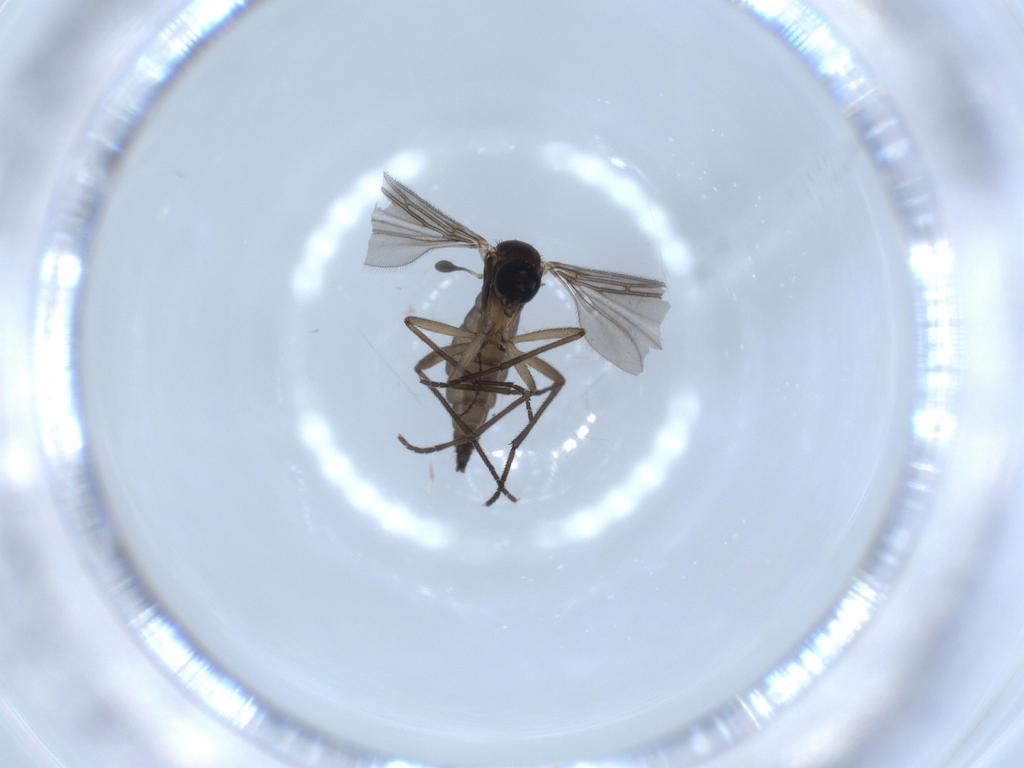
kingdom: Animalia
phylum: Arthropoda
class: Insecta
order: Diptera
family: Sciaridae
